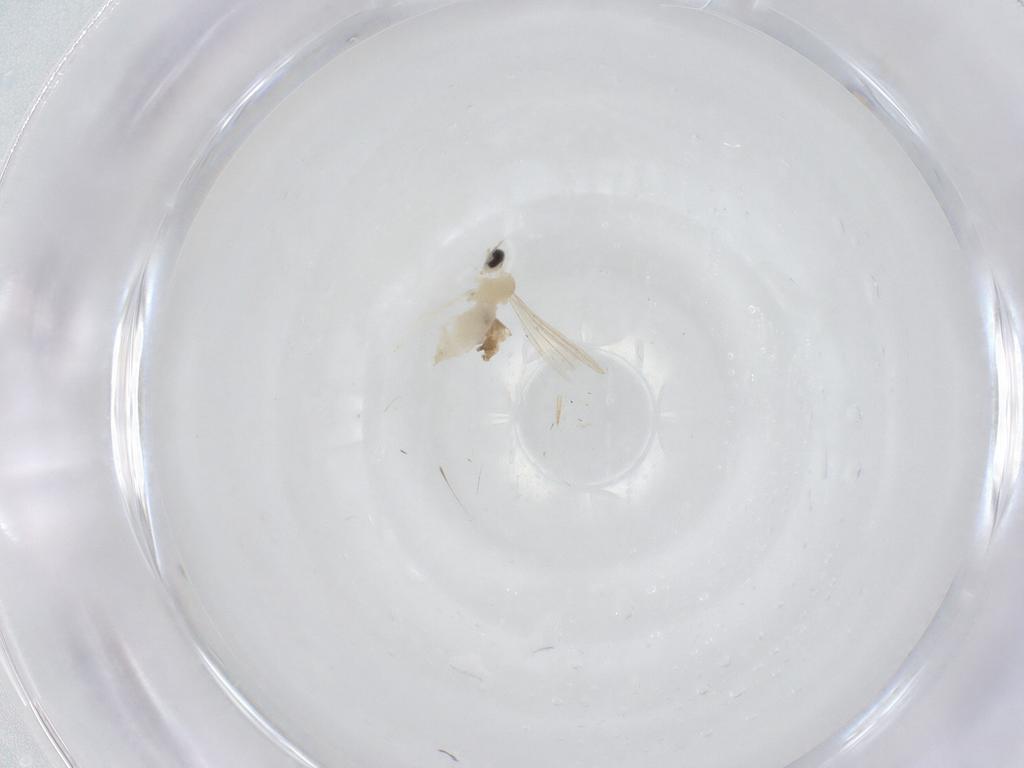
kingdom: Animalia
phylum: Arthropoda
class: Insecta
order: Diptera
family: Cecidomyiidae
